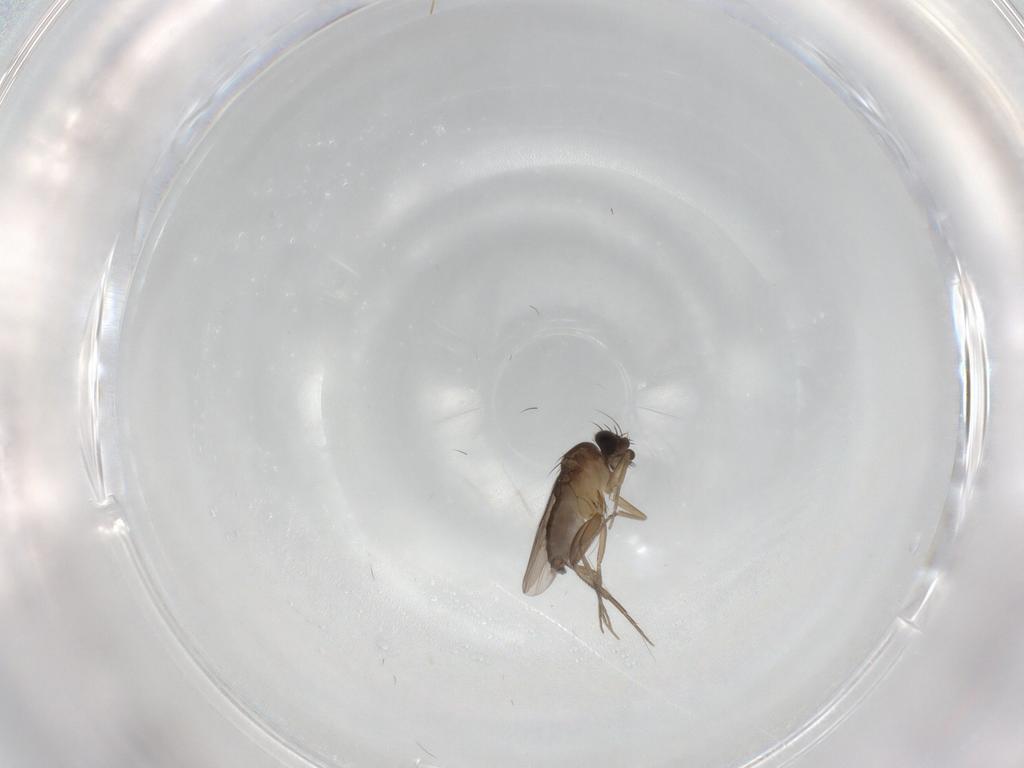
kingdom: Animalia
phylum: Arthropoda
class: Insecta
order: Diptera
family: Phoridae
